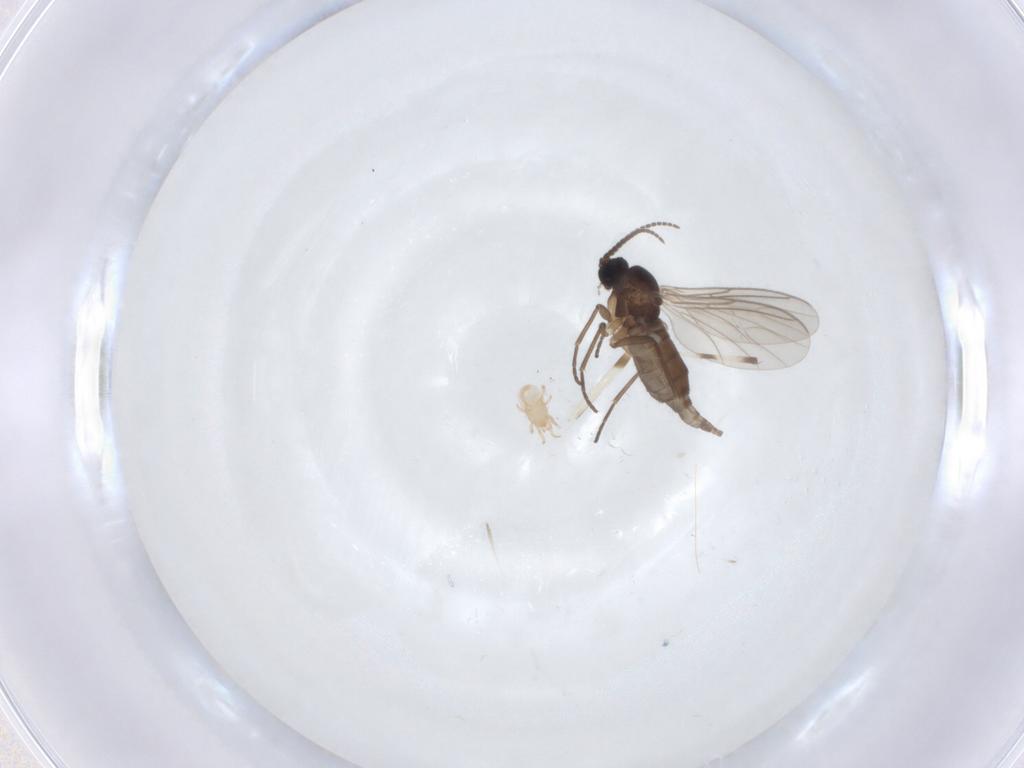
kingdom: Animalia
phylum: Arthropoda
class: Insecta
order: Diptera
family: Sciaridae
